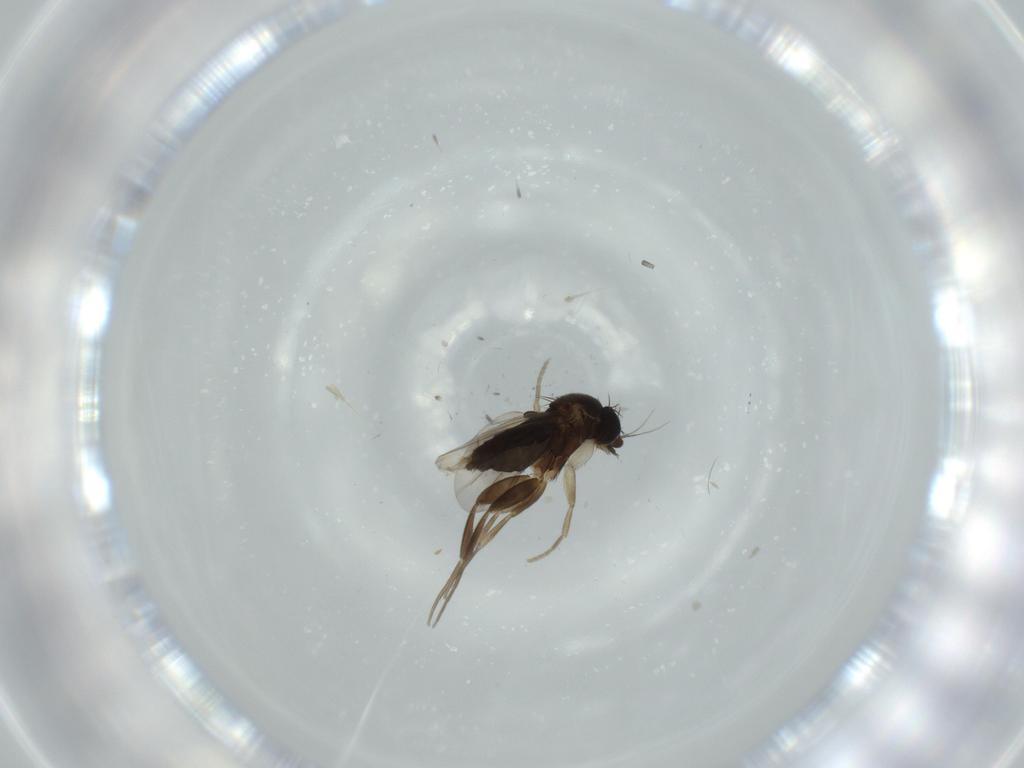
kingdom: Animalia
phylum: Arthropoda
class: Insecta
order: Diptera
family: Phoridae
